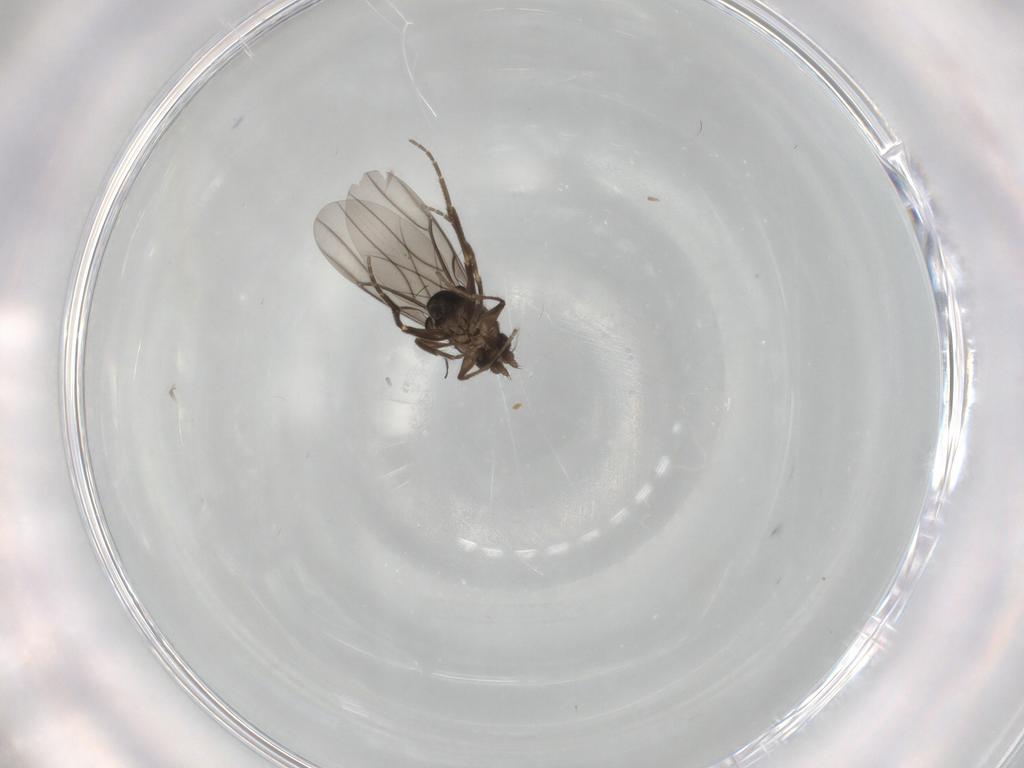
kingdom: Animalia
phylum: Arthropoda
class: Insecta
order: Diptera
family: Phoridae
